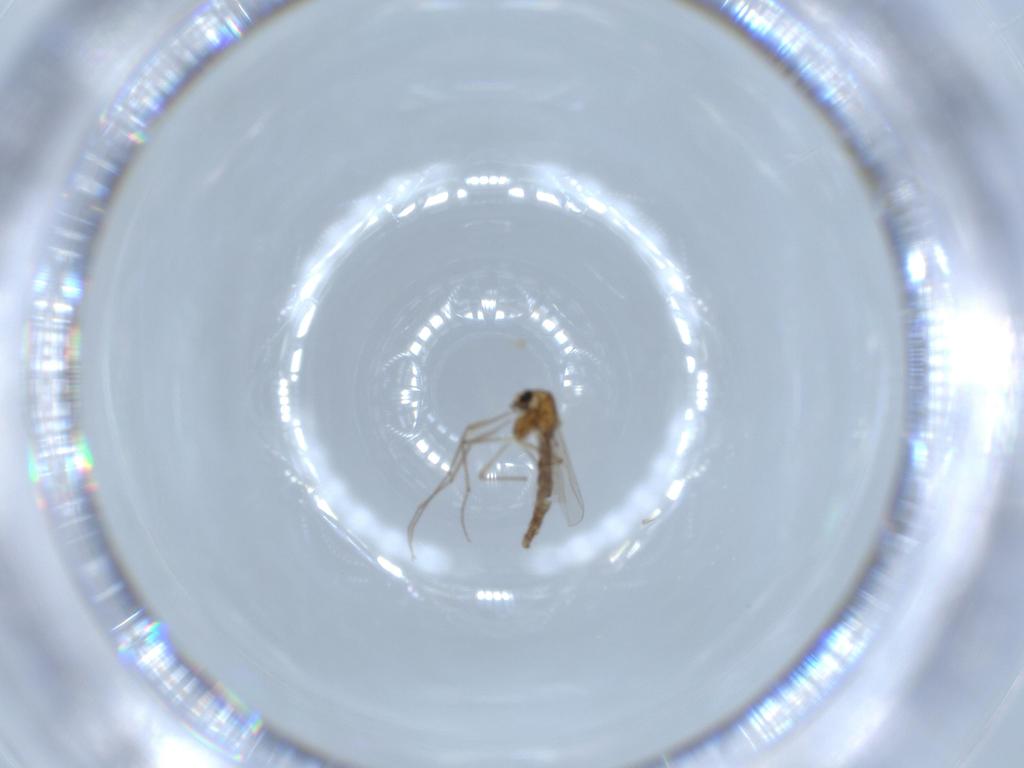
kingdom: Animalia
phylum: Arthropoda
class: Insecta
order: Diptera
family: Chironomidae
